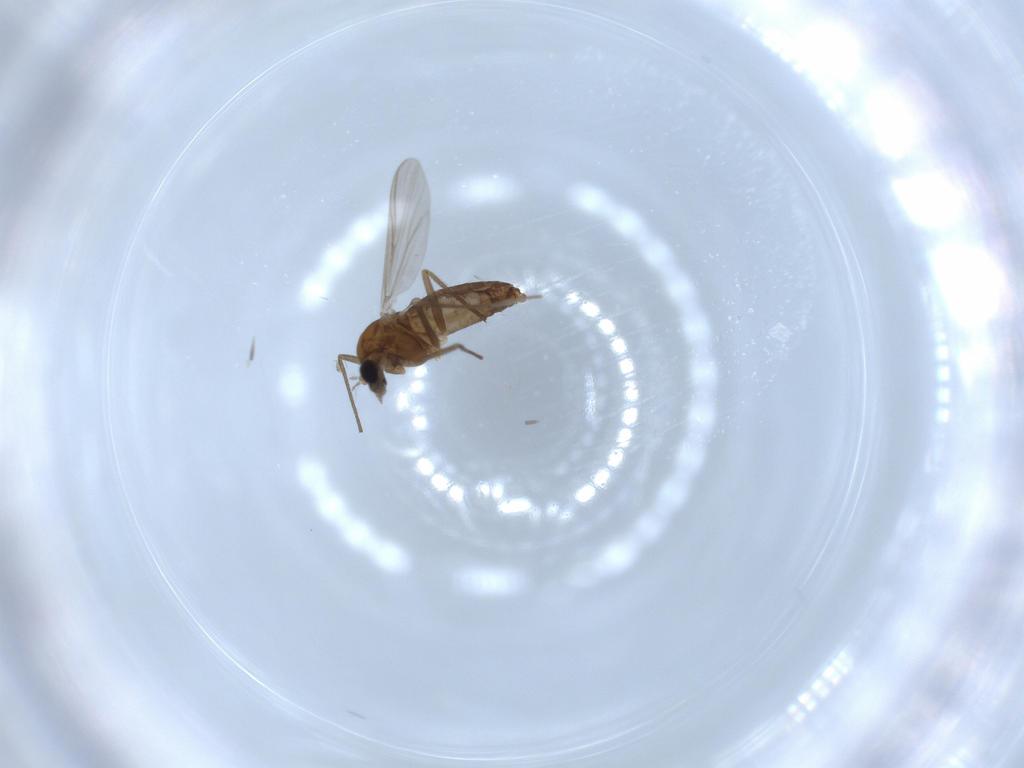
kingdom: Animalia
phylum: Arthropoda
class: Insecta
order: Diptera
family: Chironomidae
